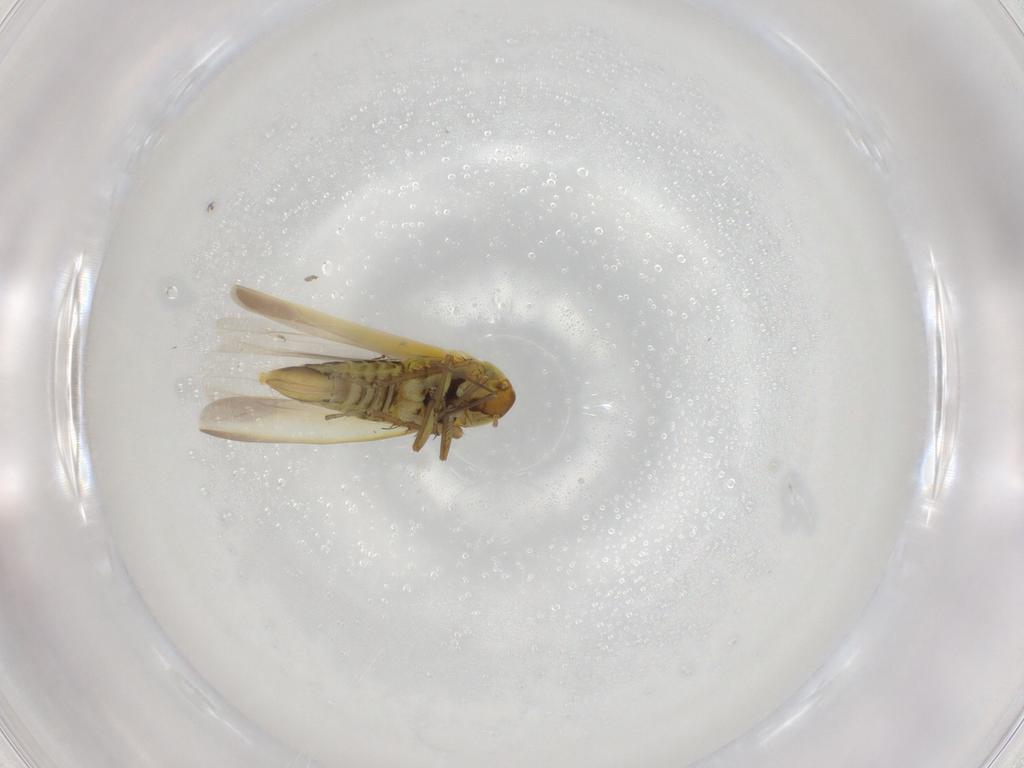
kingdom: Animalia
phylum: Arthropoda
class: Insecta
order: Hemiptera
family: Cicadellidae
